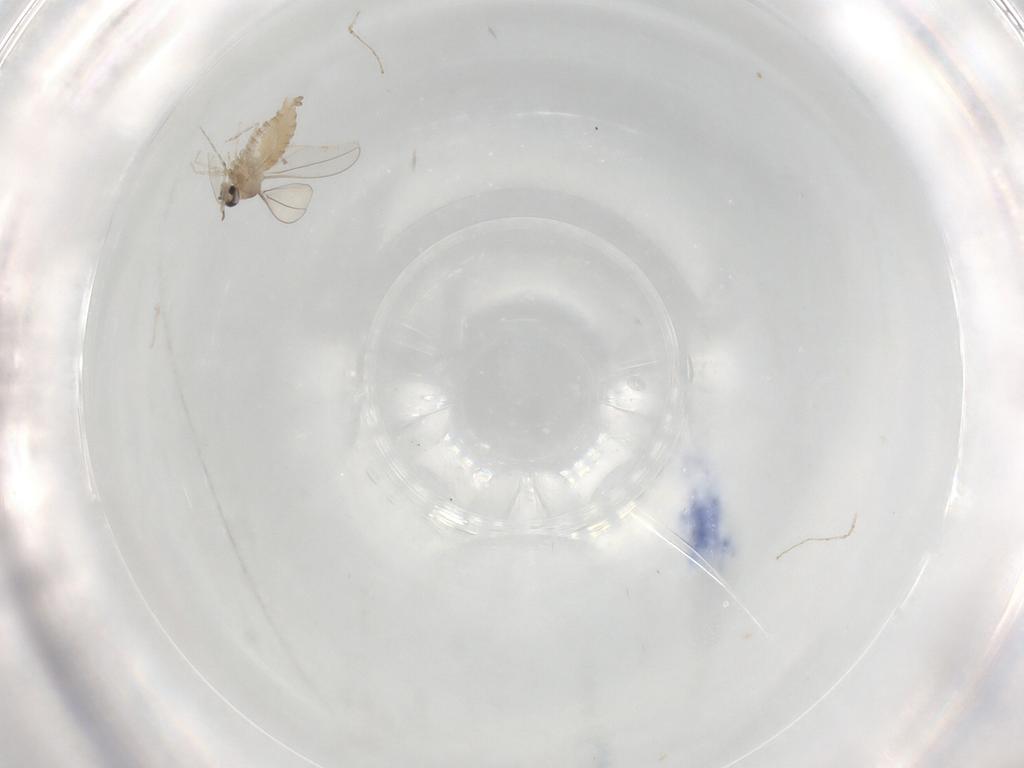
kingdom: Animalia
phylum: Arthropoda
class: Insecta
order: Diptera
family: Cecidomyiidae
